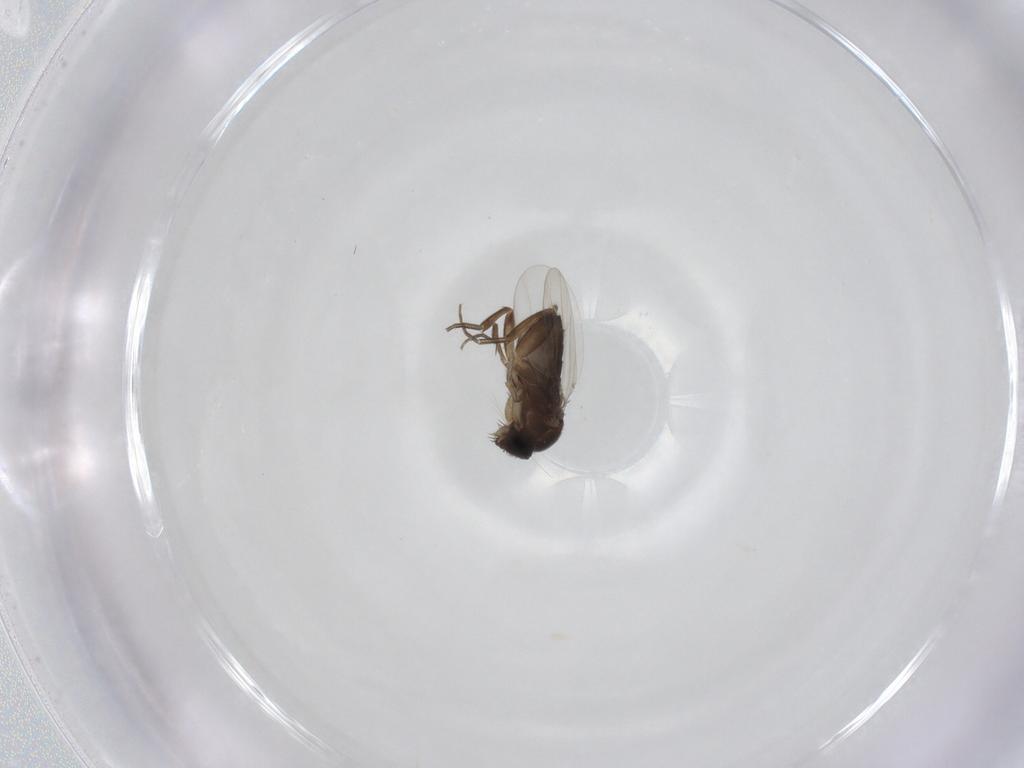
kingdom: Animalia
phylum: Arthropoda
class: Insecta
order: Diptera
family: Phoridae
